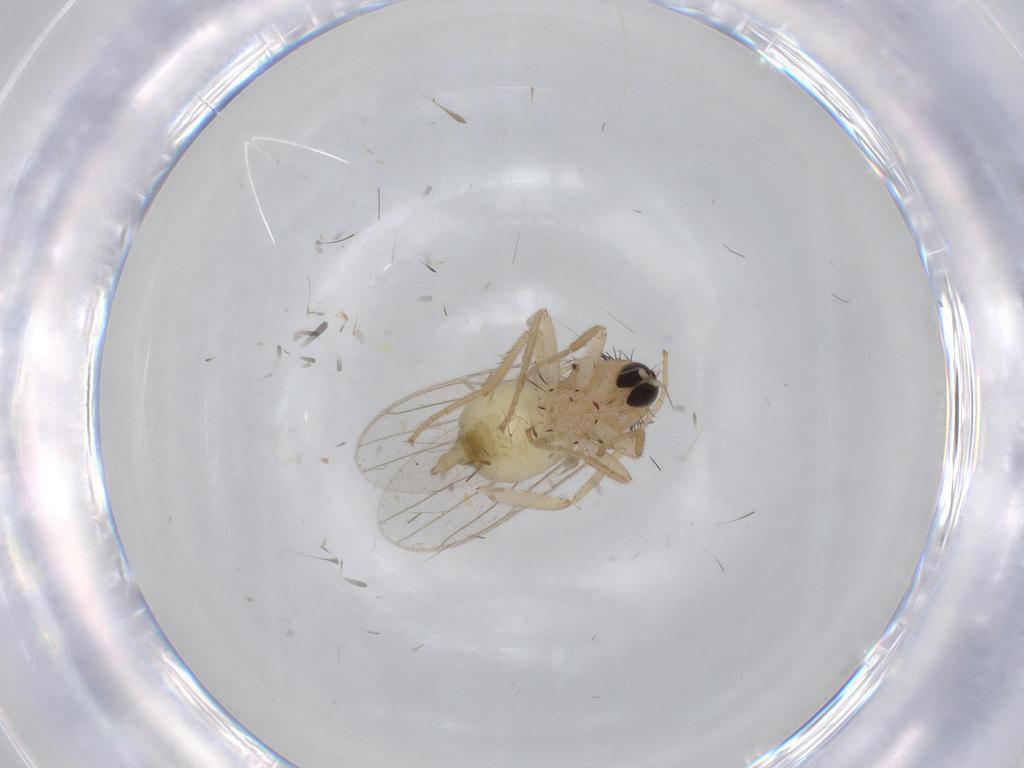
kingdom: Animalia
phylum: Arthropoda
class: Insecta
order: Diptera
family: Hybotidae
